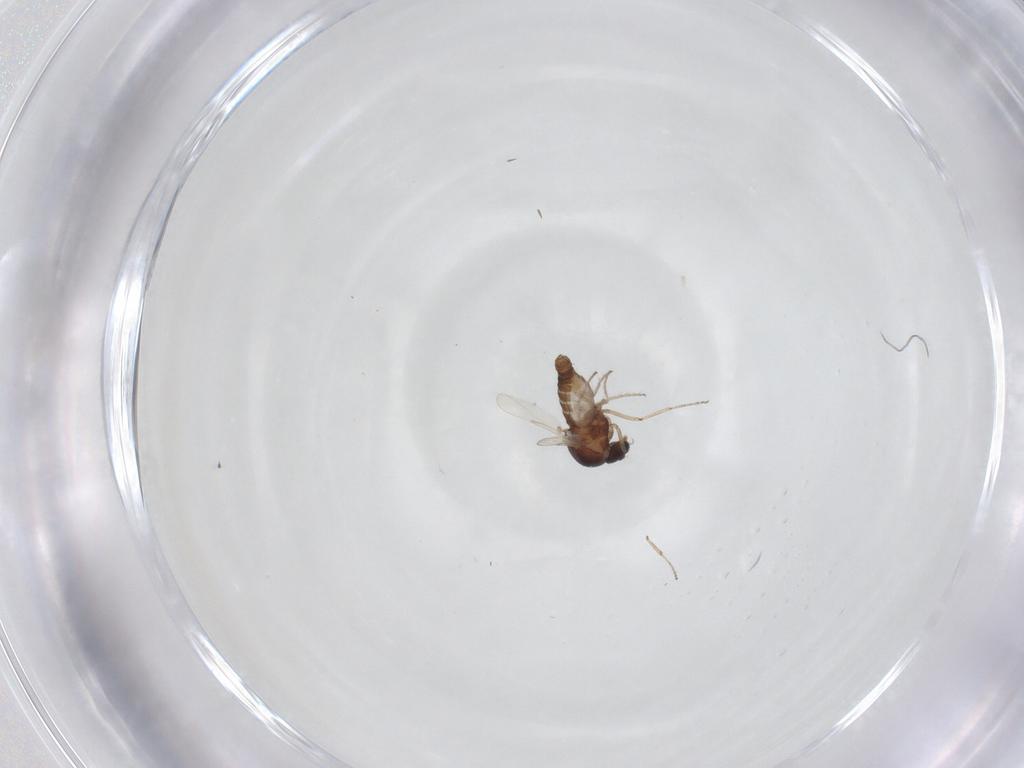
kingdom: Animalia
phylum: Arthropoda
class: Insecta
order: Diptera
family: Ceratopogonidae
